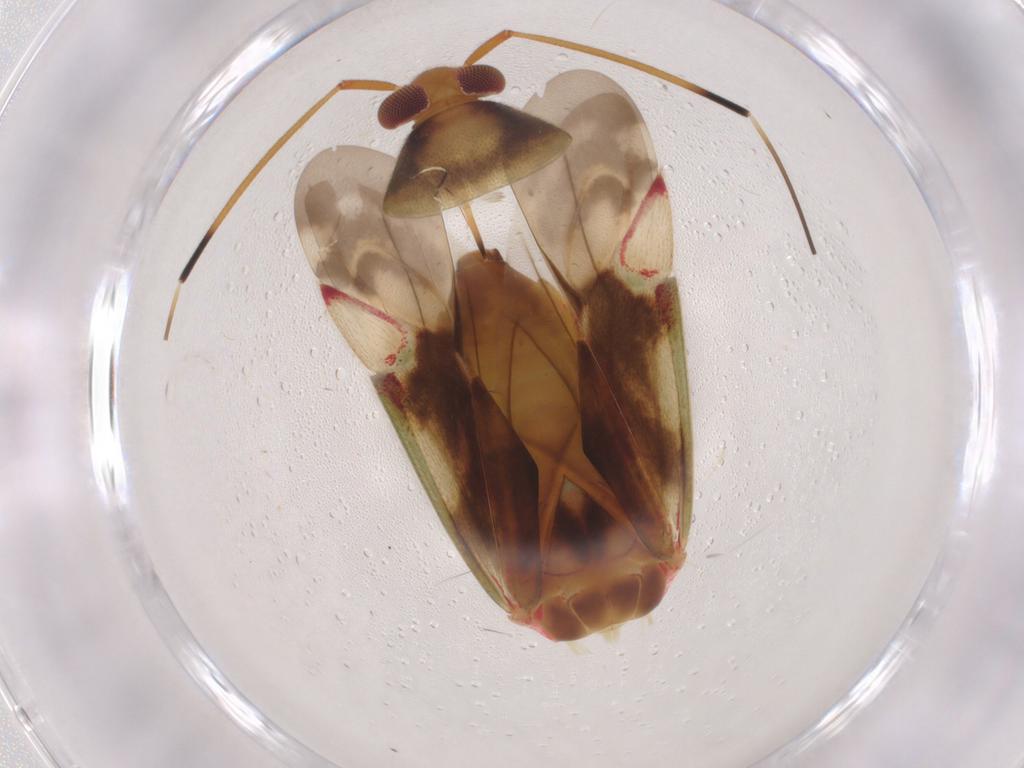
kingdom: Animalia
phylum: Arthropoda
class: Insecta
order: Hemiptera
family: Miridae
